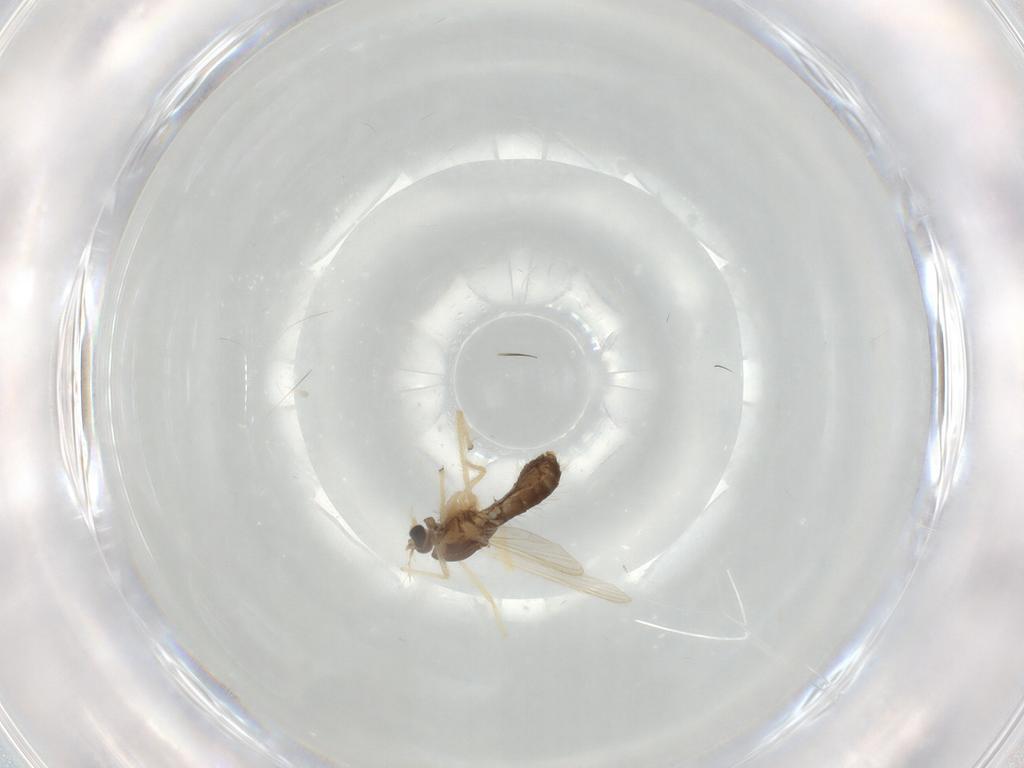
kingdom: Animalia
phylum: Arthropoda
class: Insecta
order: Diptera
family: Chironomidae
